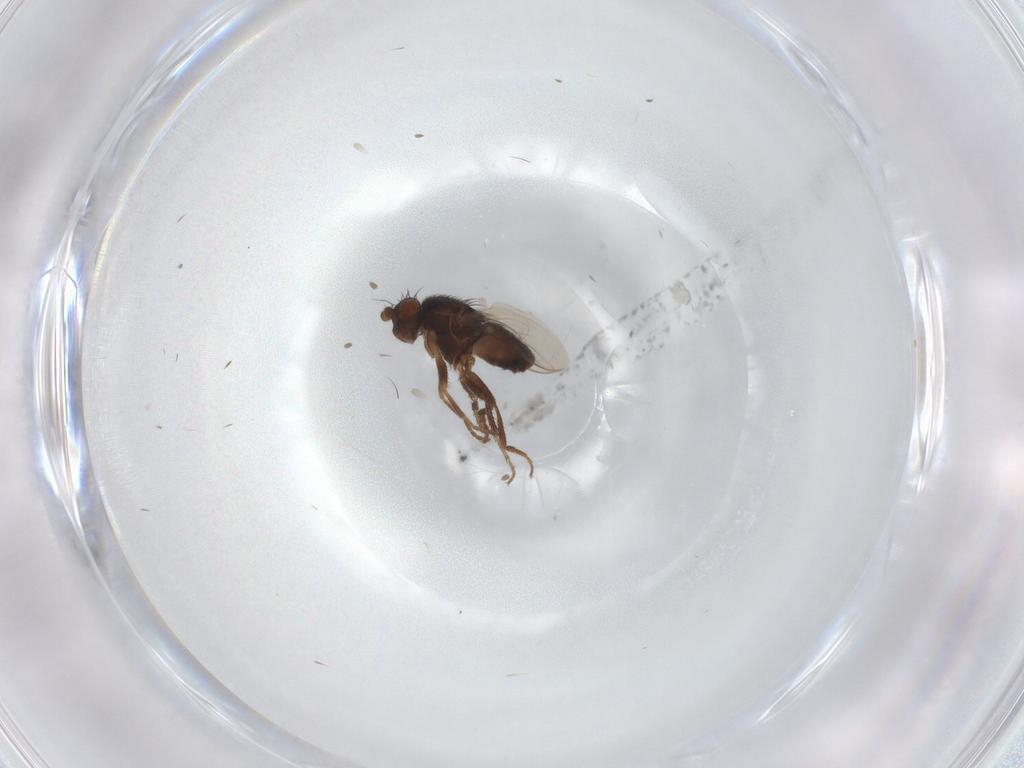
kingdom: Animalia
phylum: Arthropoda
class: Insecta
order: Diptera
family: Sphaeroceridae
